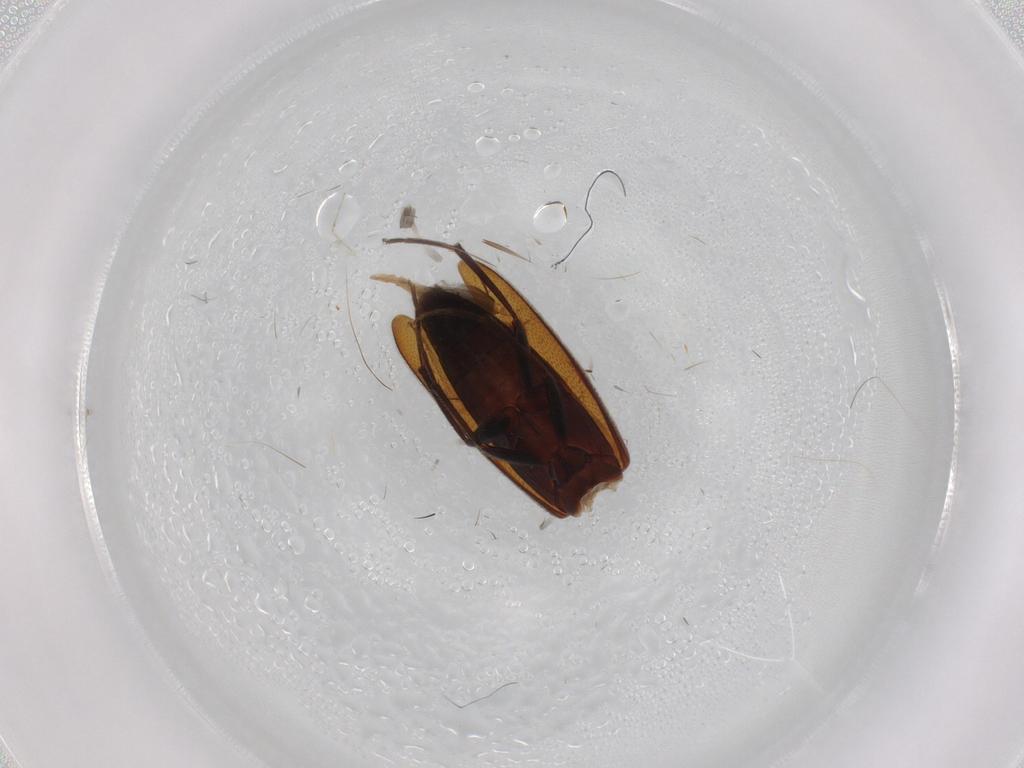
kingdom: Animalia
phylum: Arthropoda
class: Insecta
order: Coleoptera
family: Melandryidae
